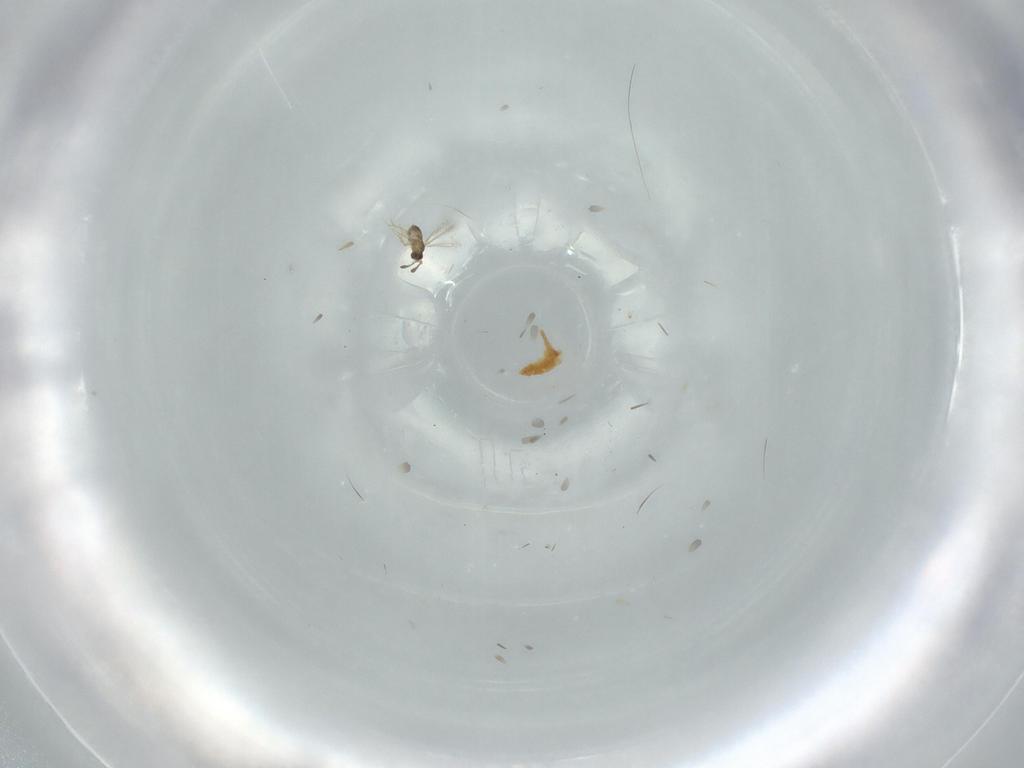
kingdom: Animalia
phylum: Arthropoda
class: Insecta
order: Hymenoptera
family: Mymaridae
